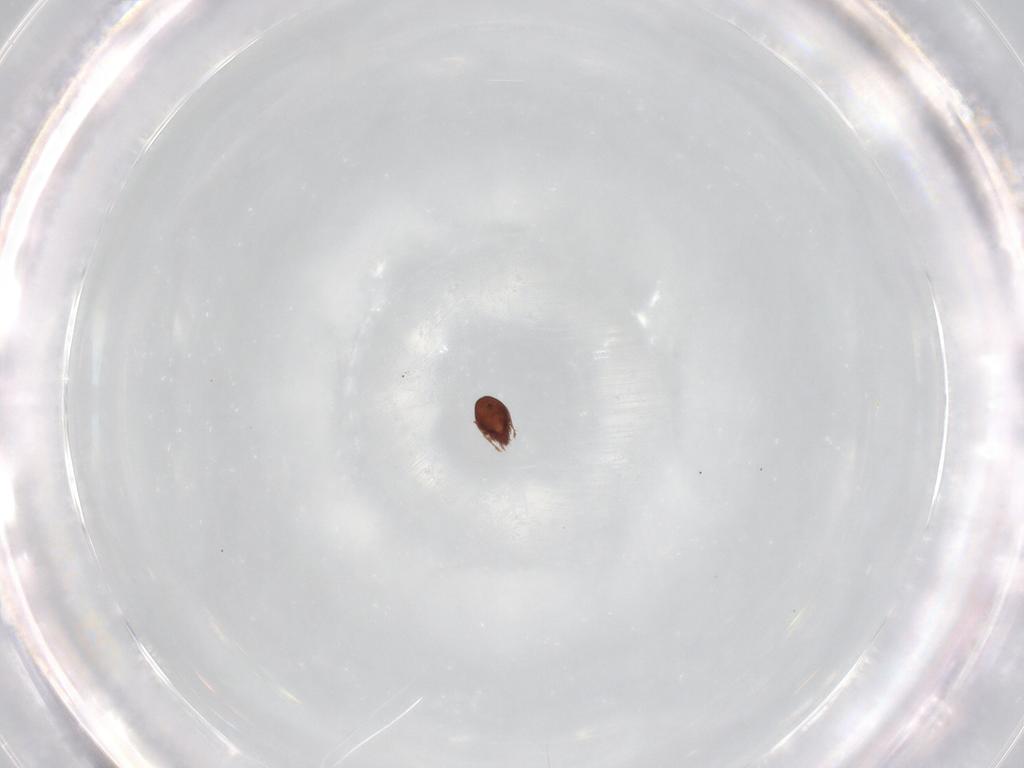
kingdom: Animalia
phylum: Arthropoda
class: Arachnida
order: Sarcoptiformes
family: Ceratozetidae
